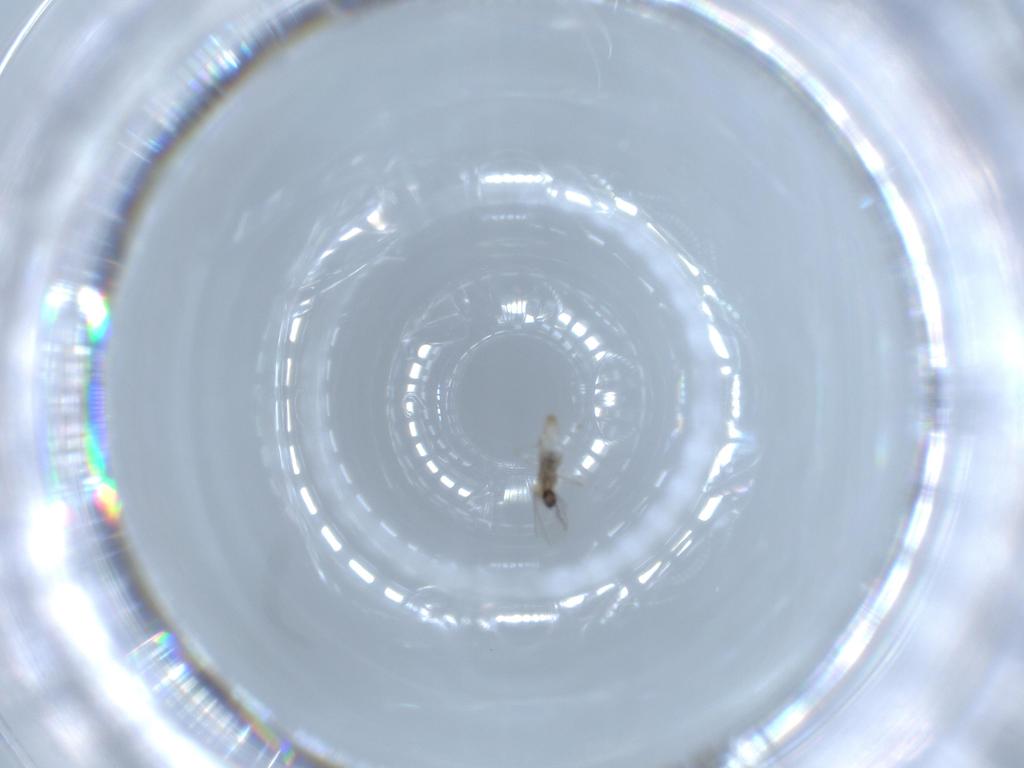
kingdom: Animalia
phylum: Arthropoda
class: Insecta
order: Diptera
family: Cecidomyiidae
